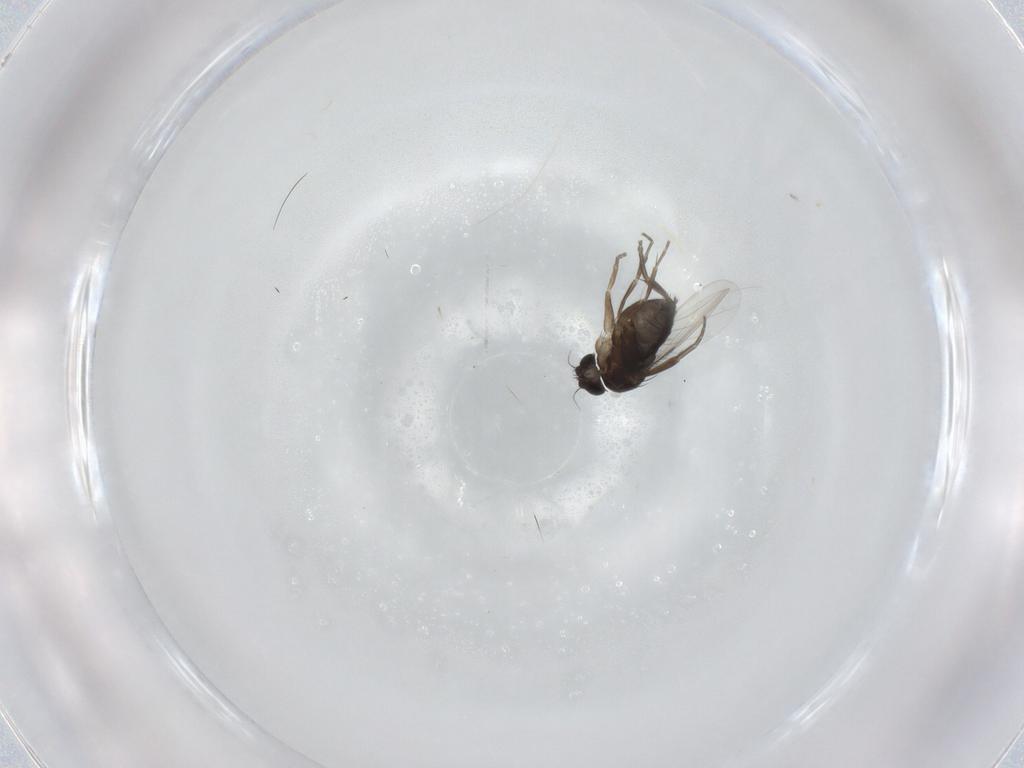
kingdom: Animalia
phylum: Arthropoda
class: Insecta
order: Diptera
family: Phoridae
